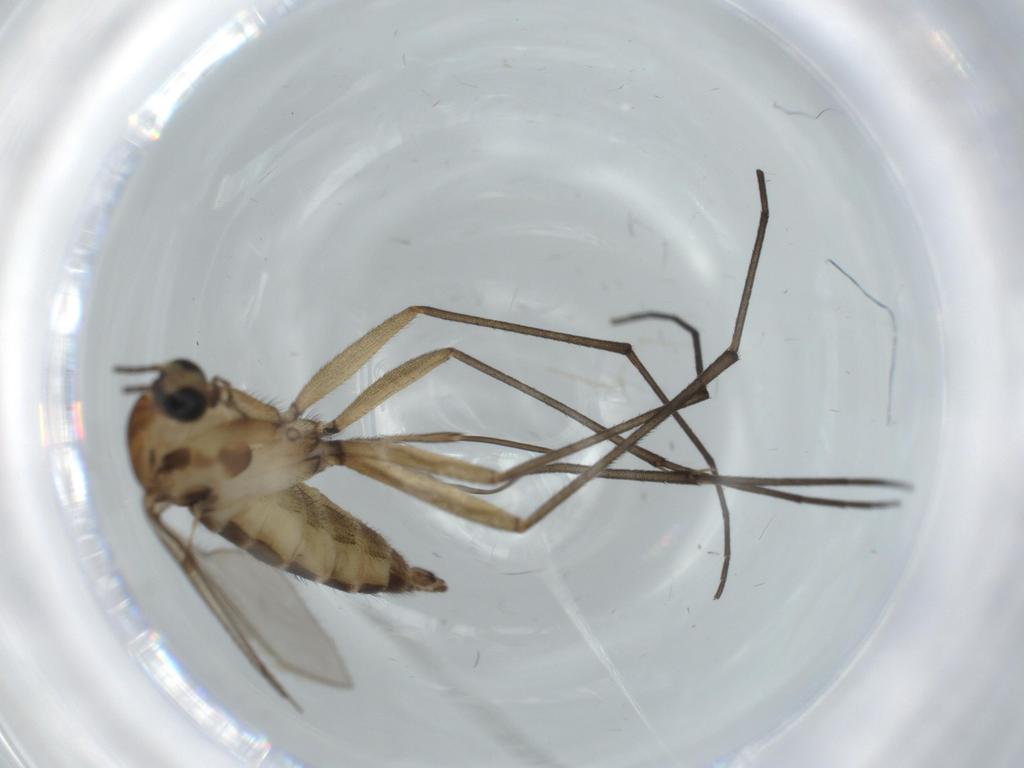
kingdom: Animalia
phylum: Arthropoda
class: Insecta
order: Diptera
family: Sciaridae
